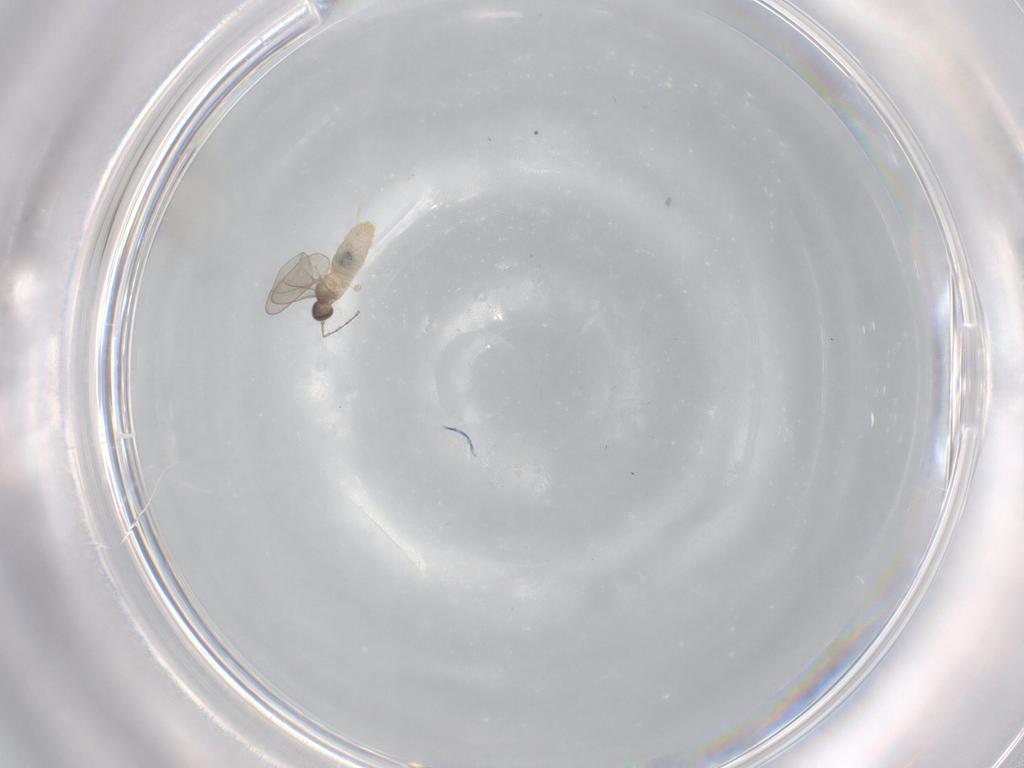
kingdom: Animalia
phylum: Arthropoda
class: Insecta
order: Diptera
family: Cecidomyiidae
